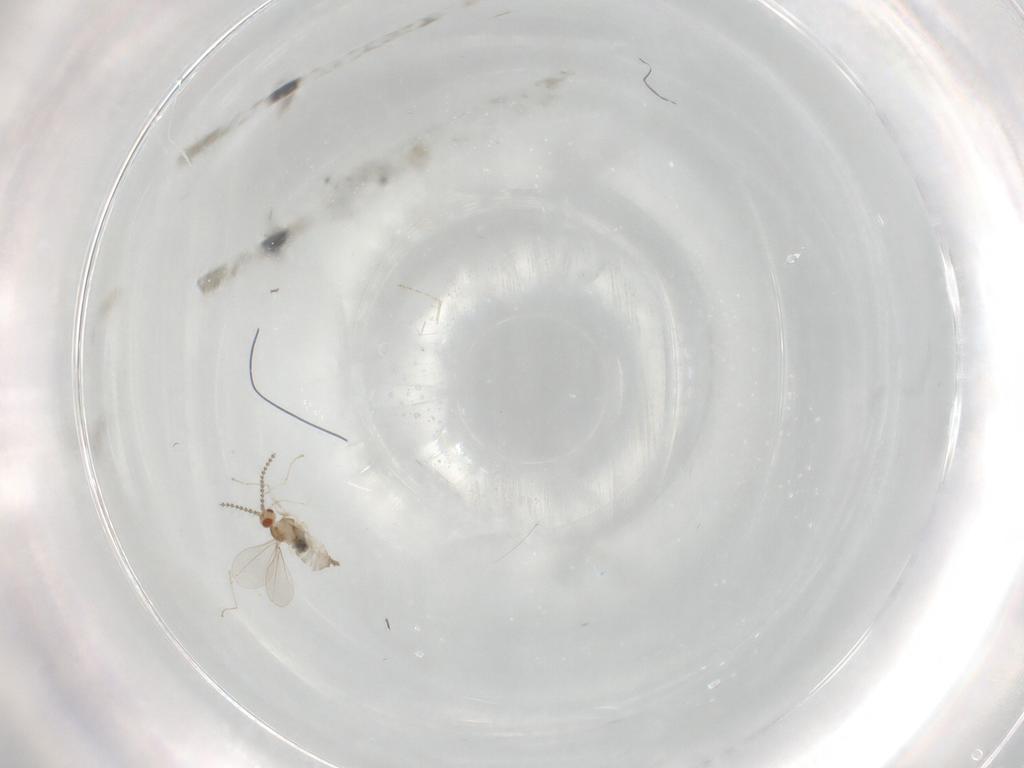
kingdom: Animalia
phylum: Arthropoda
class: Insecta
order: Diptera
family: Cecidomyiidae
